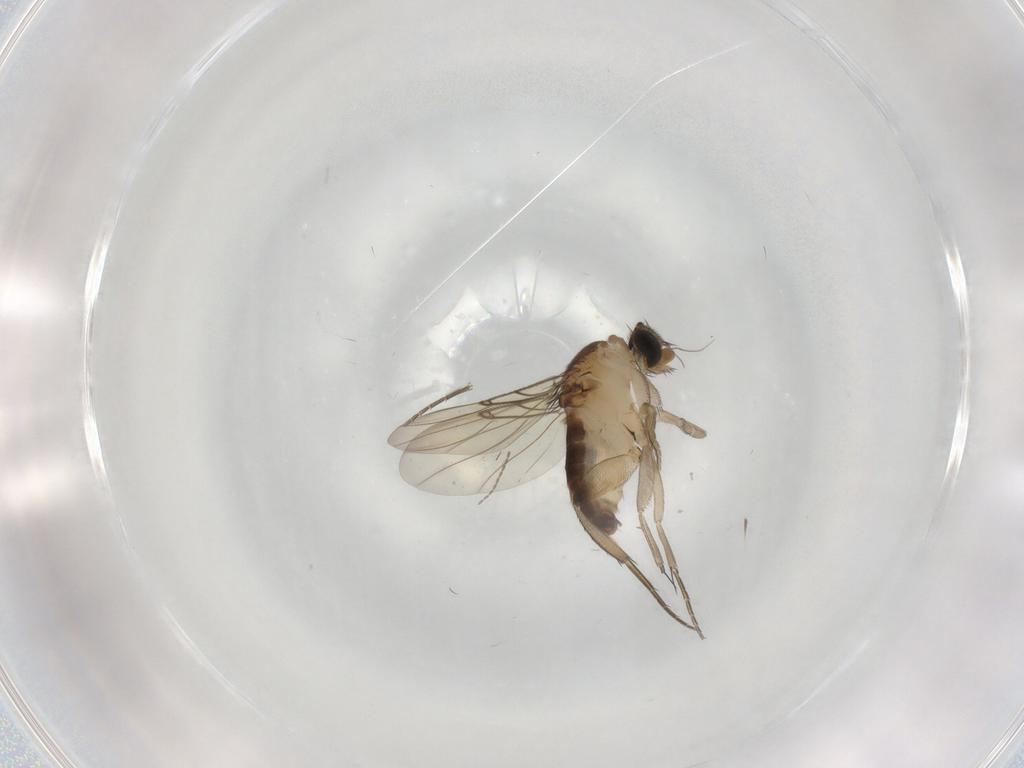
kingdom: Animalia
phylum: Arthropoda
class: Insecta
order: Diptera
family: Phoridae
